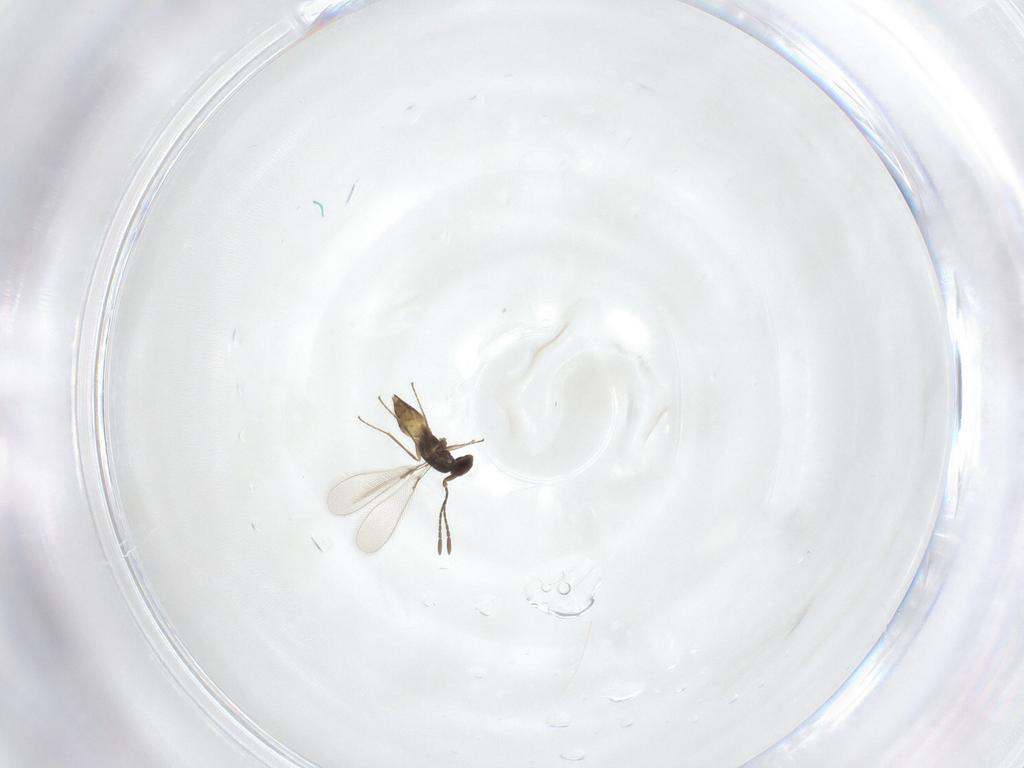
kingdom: Animalia
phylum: Arthropoda
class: Insecta
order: Hymenoptera
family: Mymaridae
